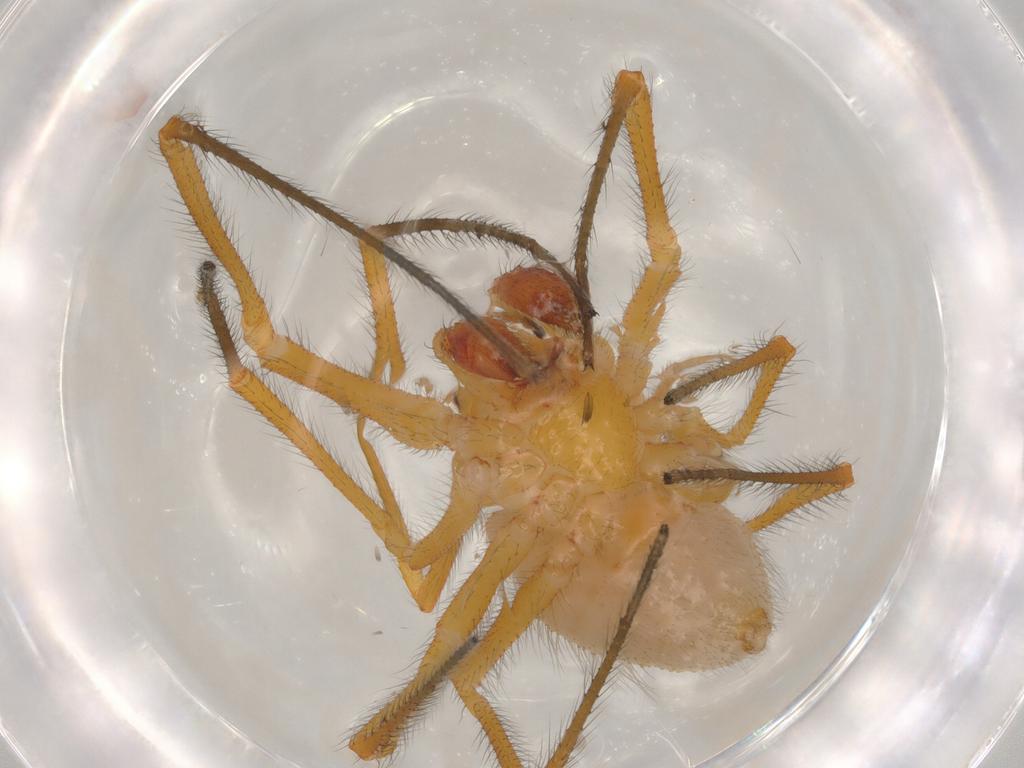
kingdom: Animalia
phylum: Arthropoda
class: Arachnida
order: Araneae
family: Theridiidae
